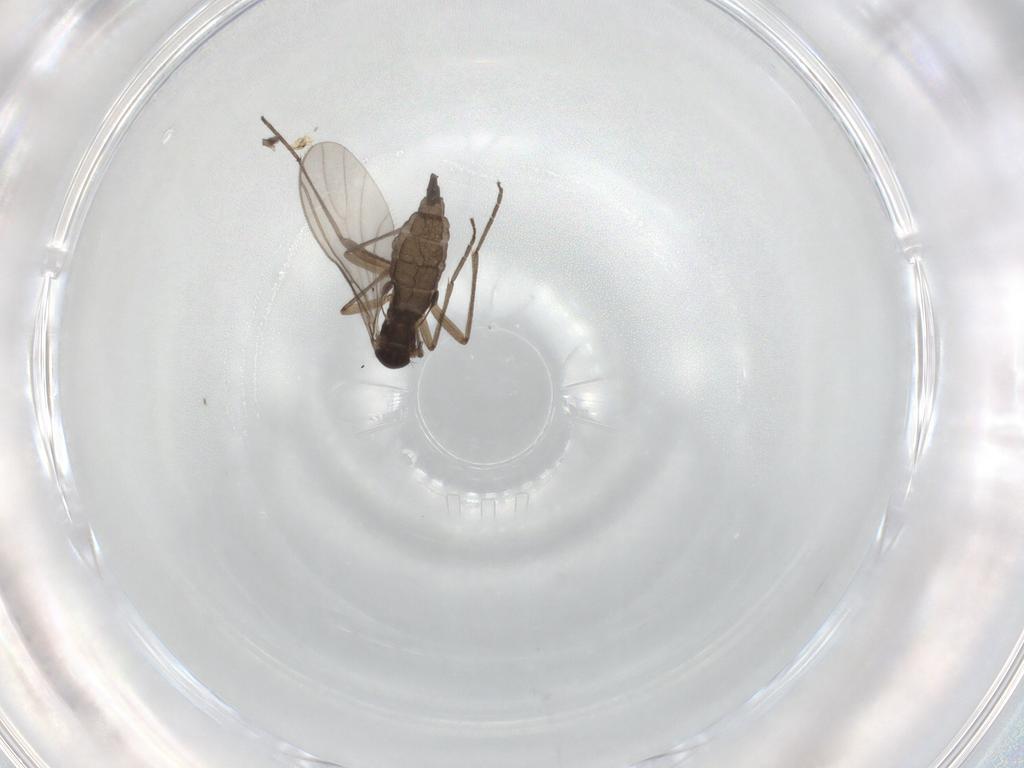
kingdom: Animalia
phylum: Arthropoda
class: Insecta
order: Diptera
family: Sciaridae
